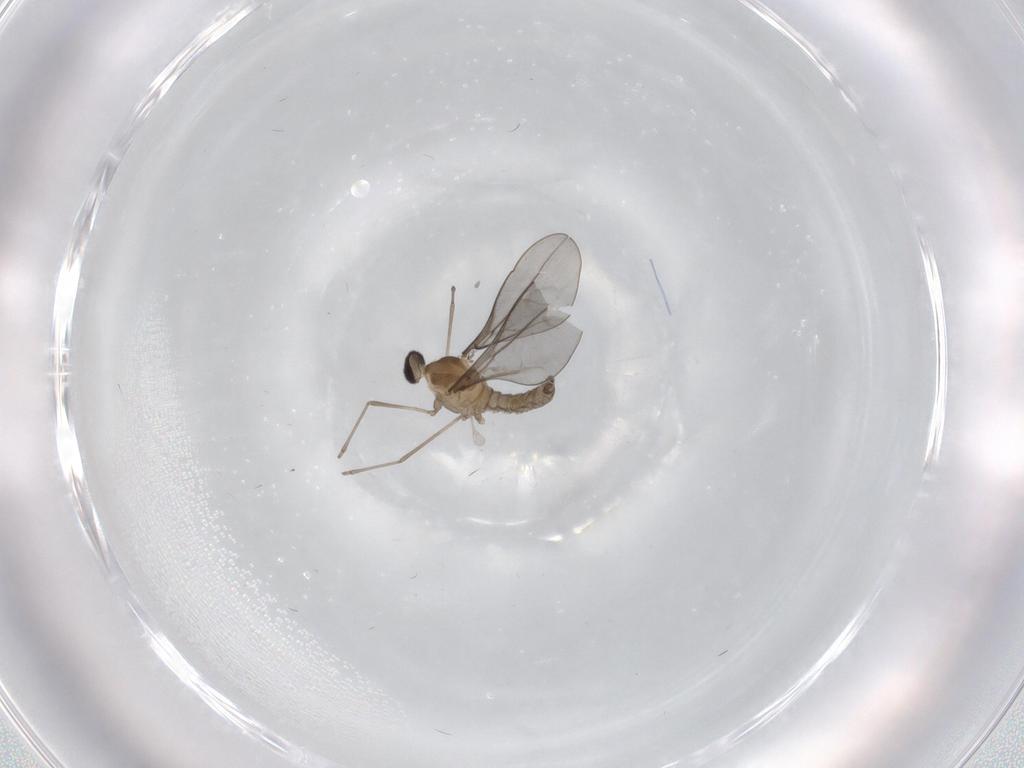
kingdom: Animalia
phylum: Arthropoda
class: Insecta
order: Diptera
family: Cecidomyiidae
